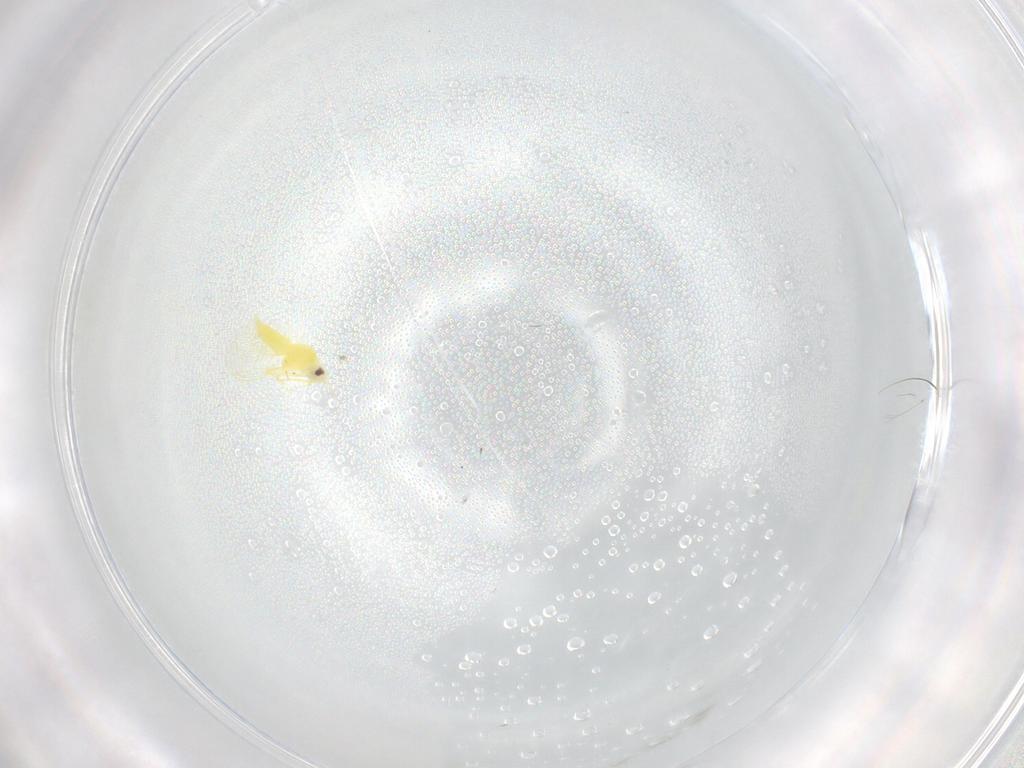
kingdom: Animalia
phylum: Arthropoda
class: Insecta
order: Hemiptera
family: Aleyrodidae
